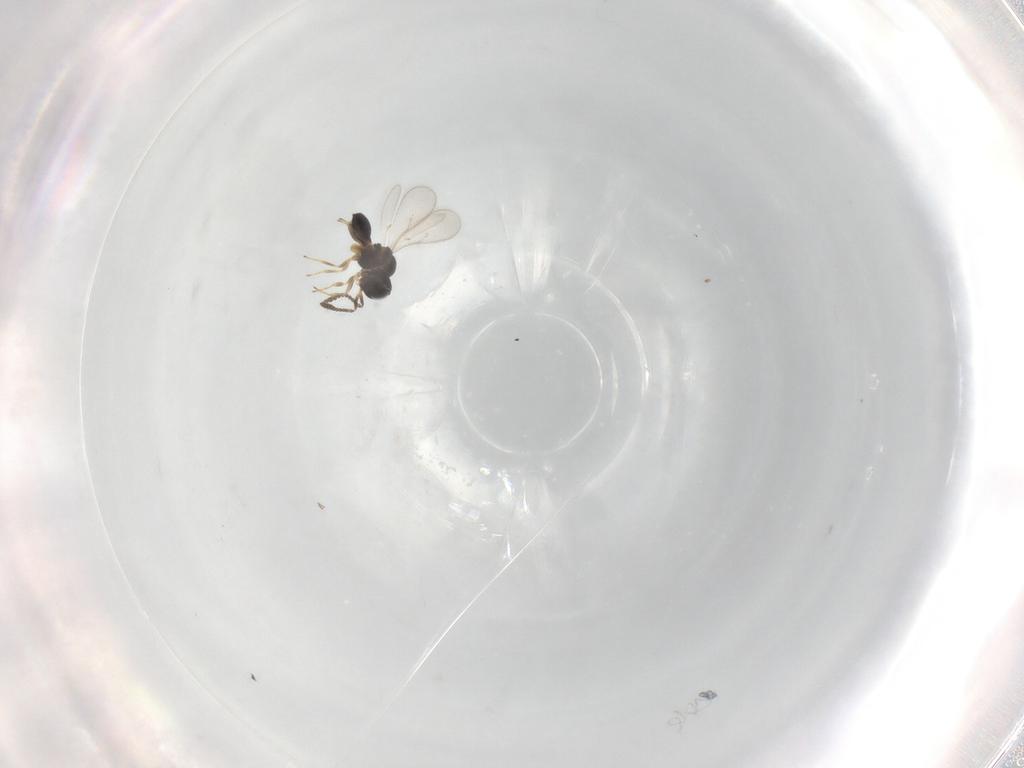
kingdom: Animalia
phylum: Arthropoda
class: Insecta
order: Hymenoptera
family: Scelionidae
